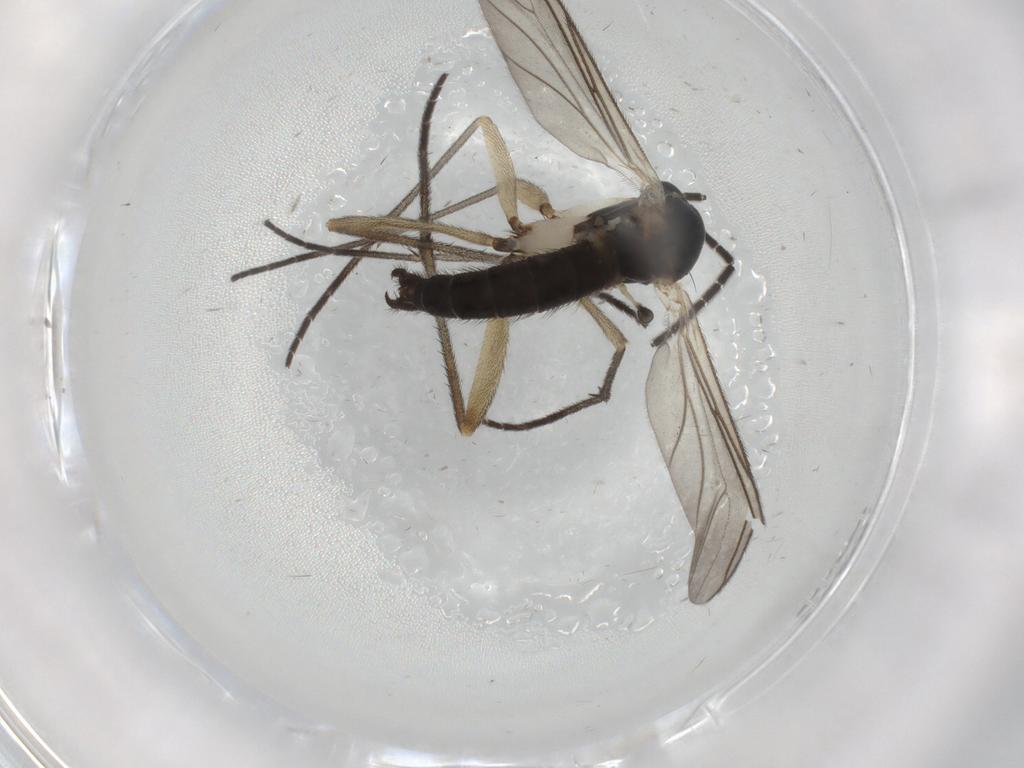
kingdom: Animalia
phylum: Arthropoda
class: Insecta
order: Diptera
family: Sciaridae
